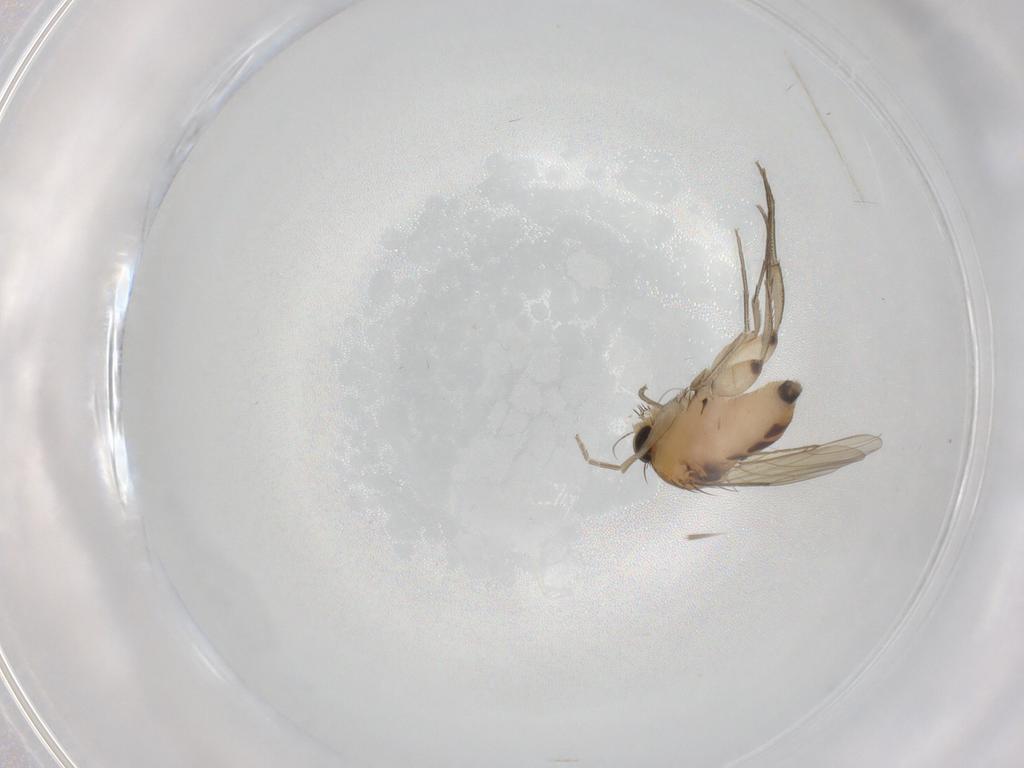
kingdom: Animalia
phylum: Arthropoda
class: Insecta
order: Diptera
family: Phoridae
